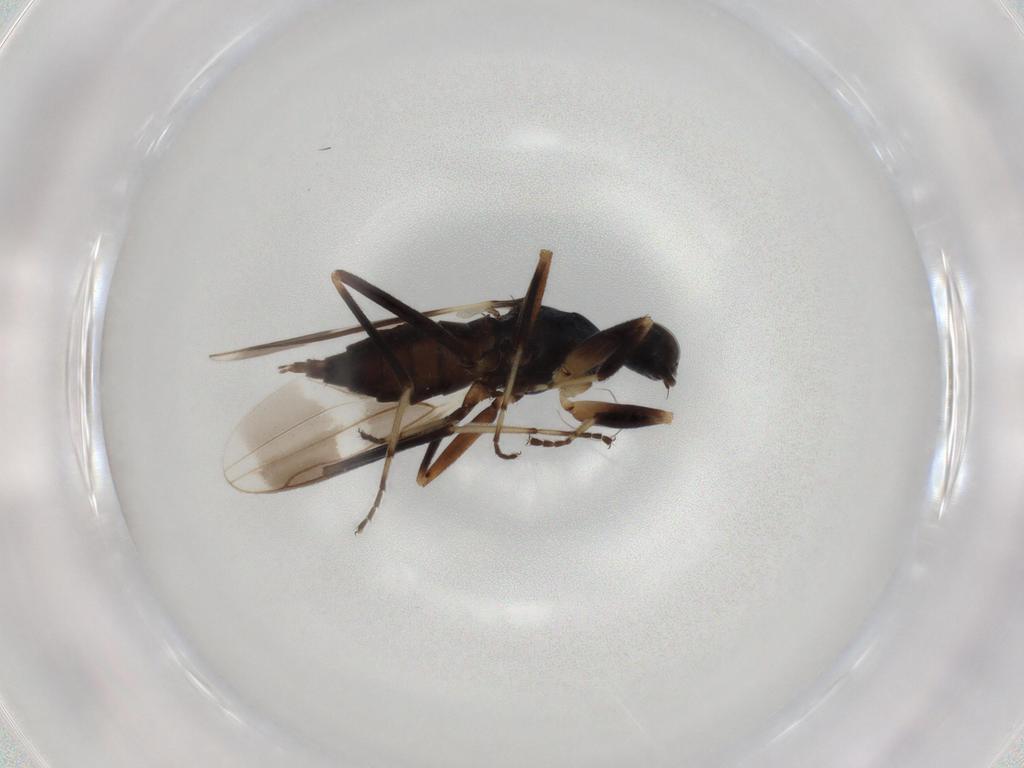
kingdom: Animalia
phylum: Arthropoda
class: Insecta
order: Diptera
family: Hybotidae
